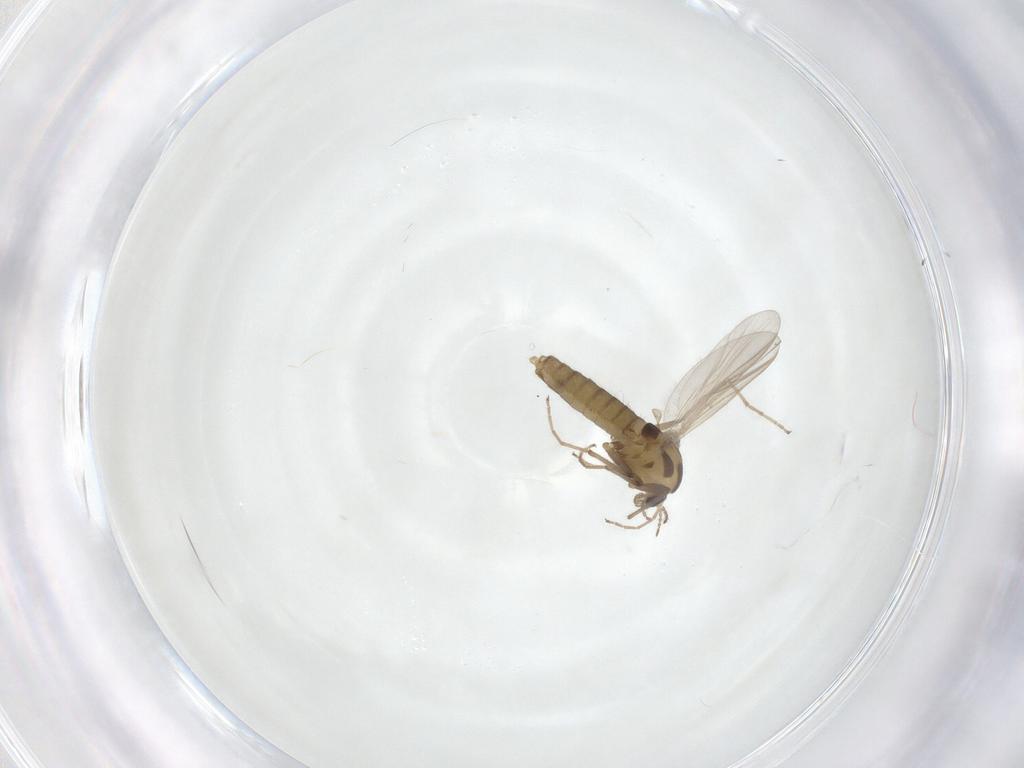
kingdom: Animalia
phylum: Arthropoda
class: Insecta
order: Diptera
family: Chironomidae
